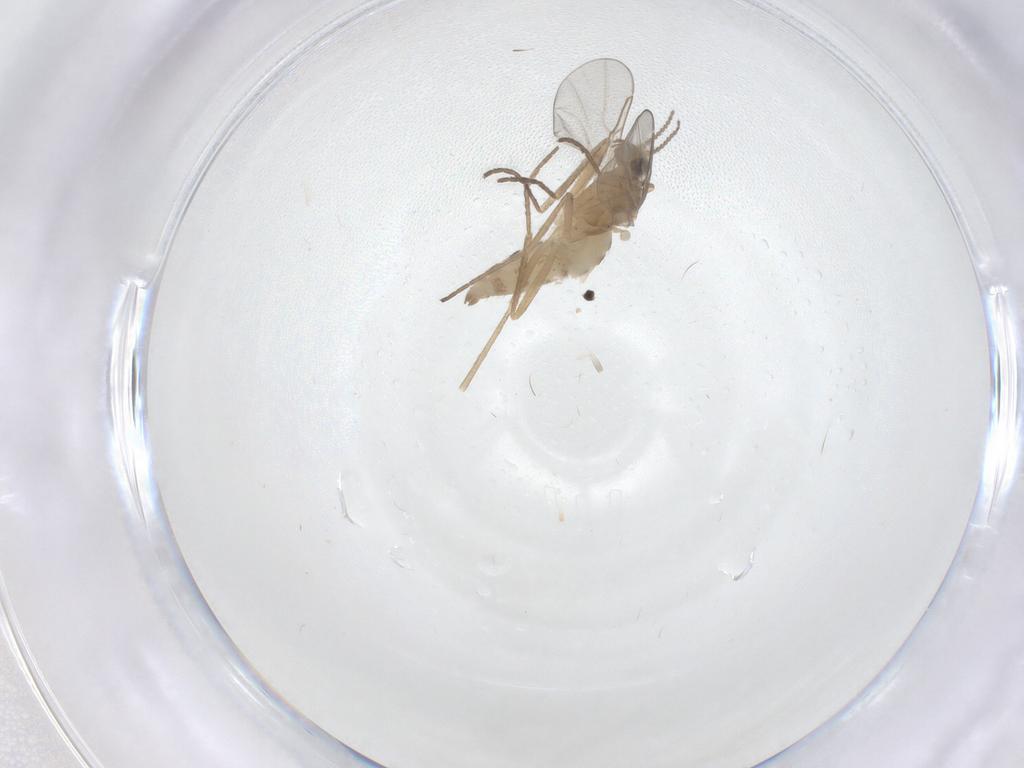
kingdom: Animalia
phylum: Arthropoda
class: Insecta
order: Diptera
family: Cecidomyiidae
